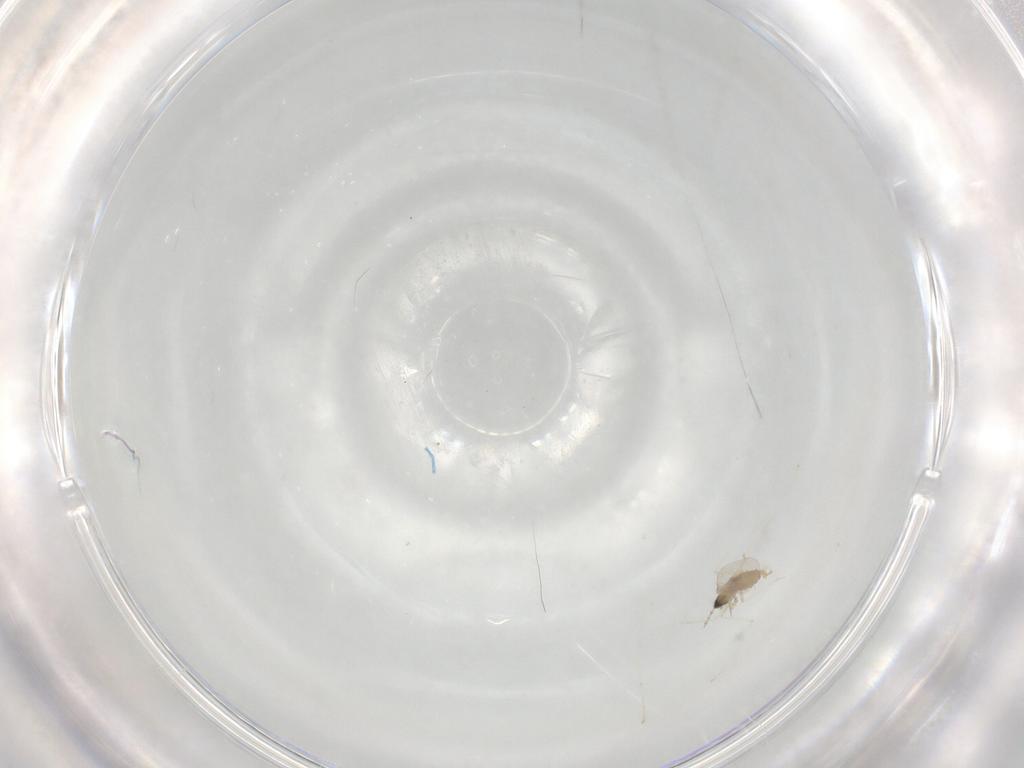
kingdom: Animalia
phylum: Arthropoda
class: Insecta
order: Diptera
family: Cecidomyiidae
